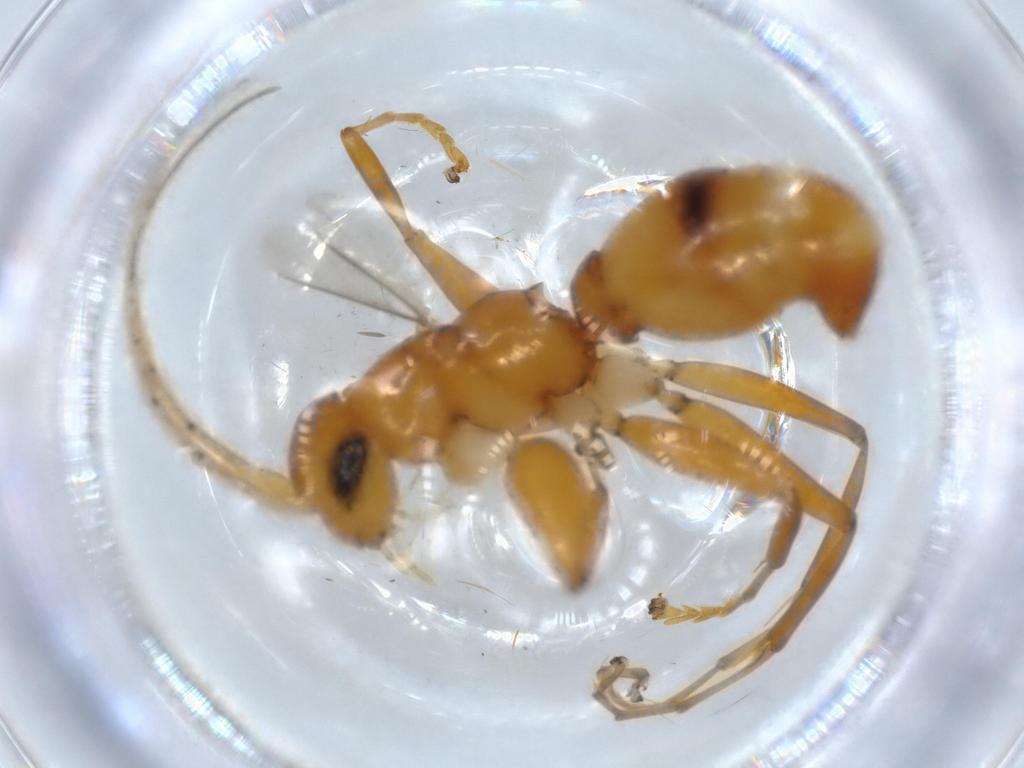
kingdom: Animalia
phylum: Arthropoda
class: Insecta
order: Hymenoptera
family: Rhopalosomatidae
